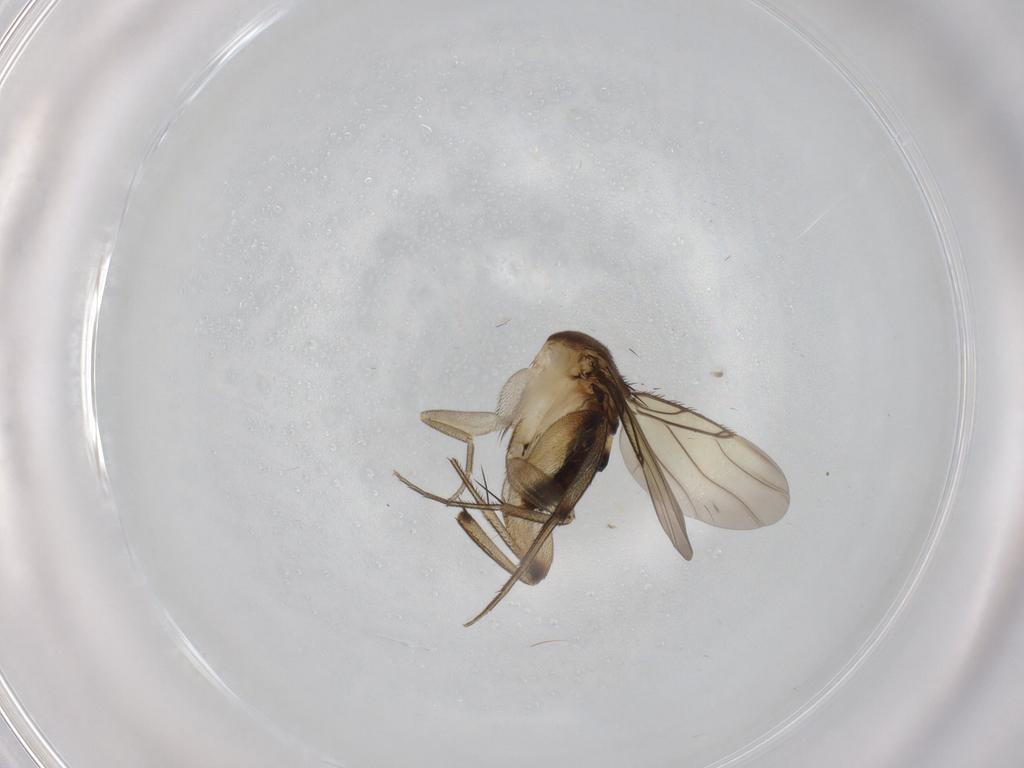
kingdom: Animalia
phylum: Arthropoda
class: Insecta
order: Diptera
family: Phoridae
